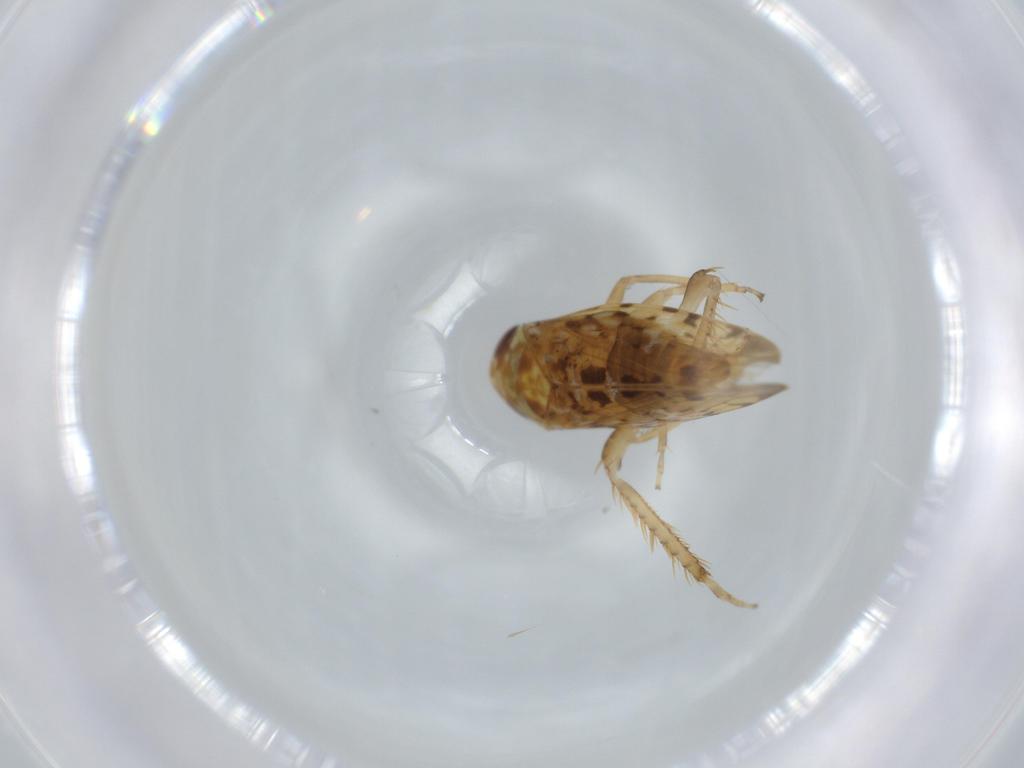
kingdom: Animalia
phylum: Arthropoda
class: Insecta
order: Hemiptera
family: Cicadellidae
